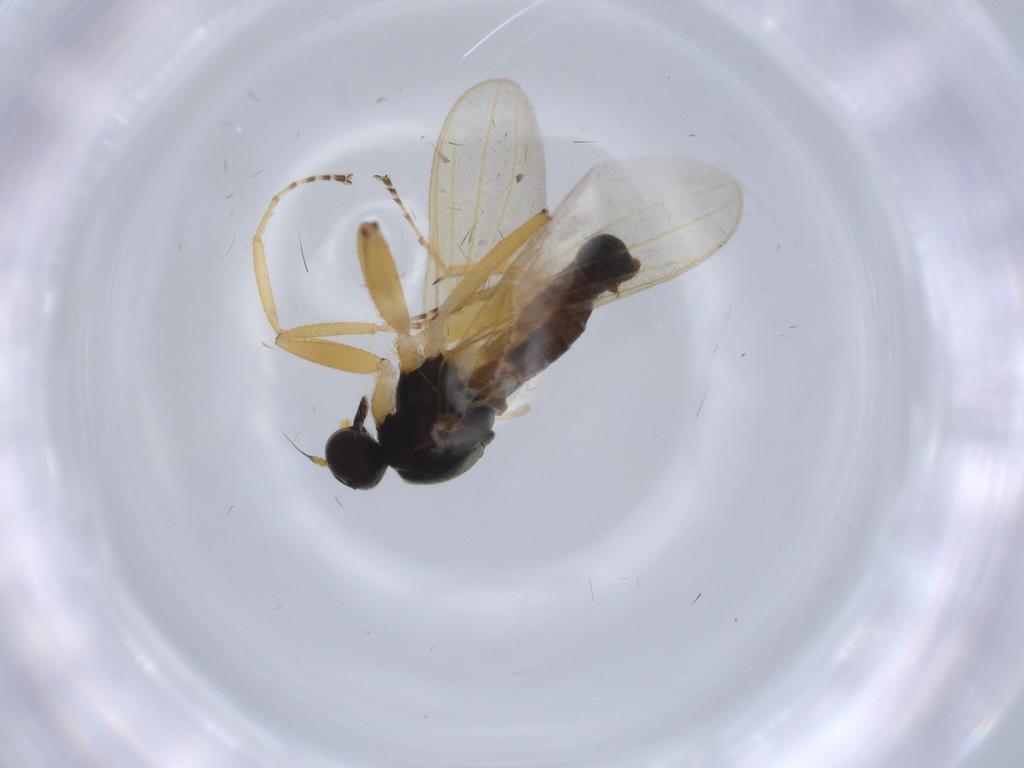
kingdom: Animalia
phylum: Arthropoda
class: Insecta
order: Diptera
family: Hybotidae
